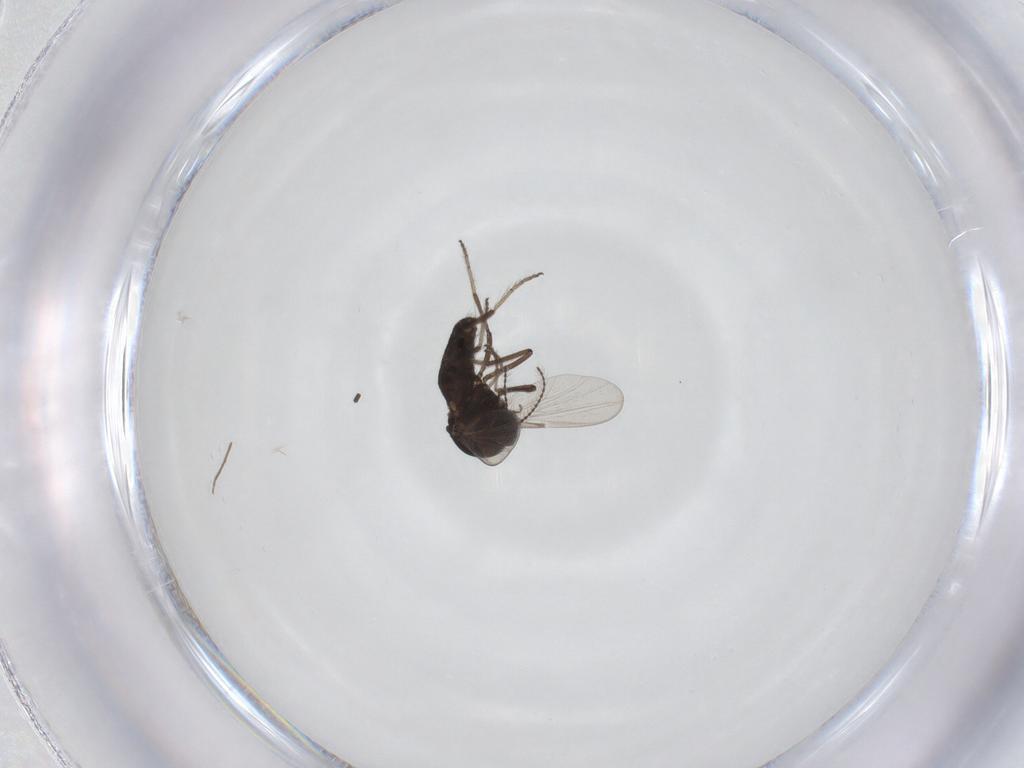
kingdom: Animalia
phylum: Arthropoda
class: Insecta
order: Diptera
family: Ceratopogonidae
